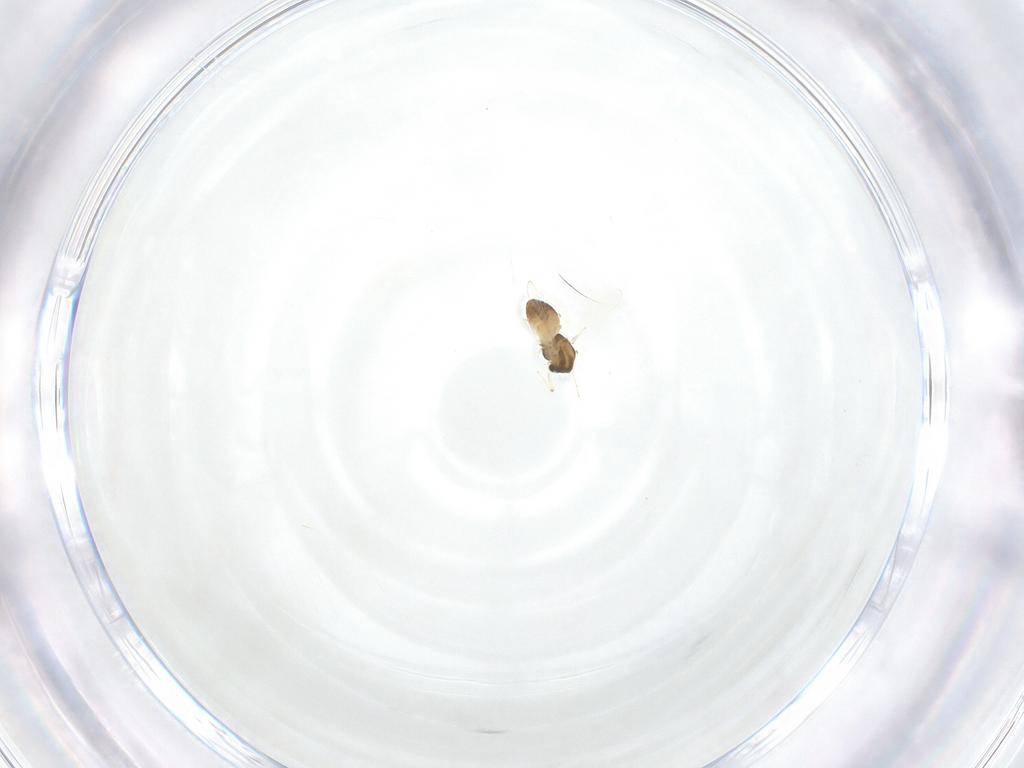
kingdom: Animalia
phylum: Arthropoda
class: Insecta
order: Diptera
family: Chironomidae
